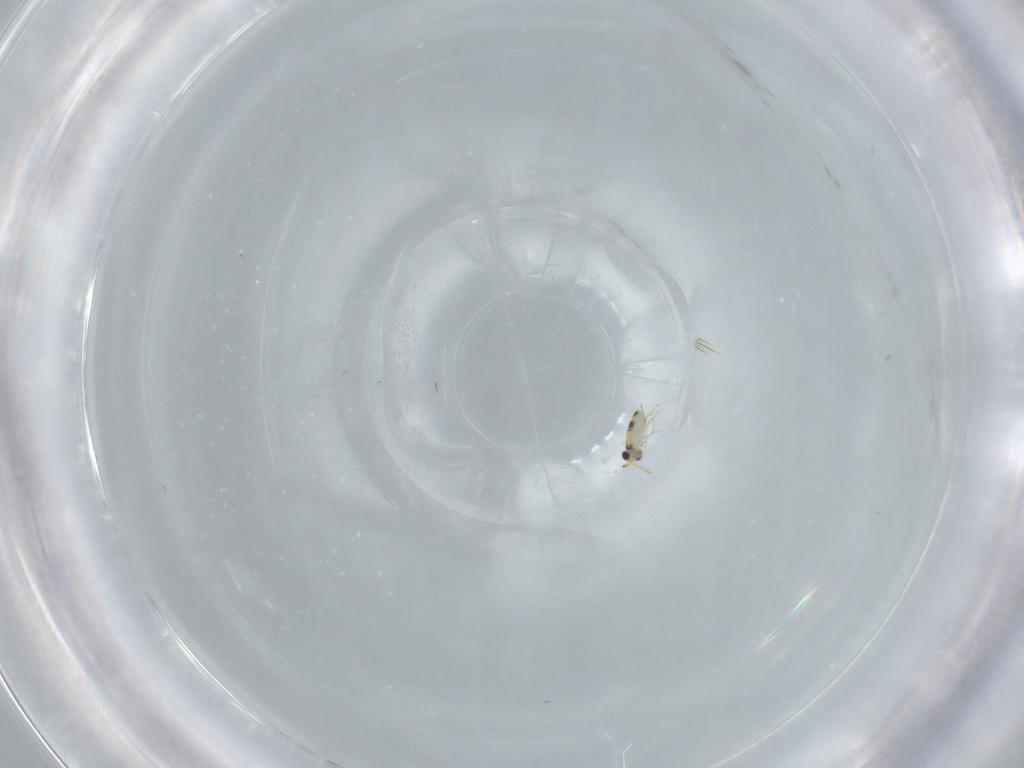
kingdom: Animalia
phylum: Arthropoda
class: Insecta
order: Hymenoptera
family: Aphelinidae
